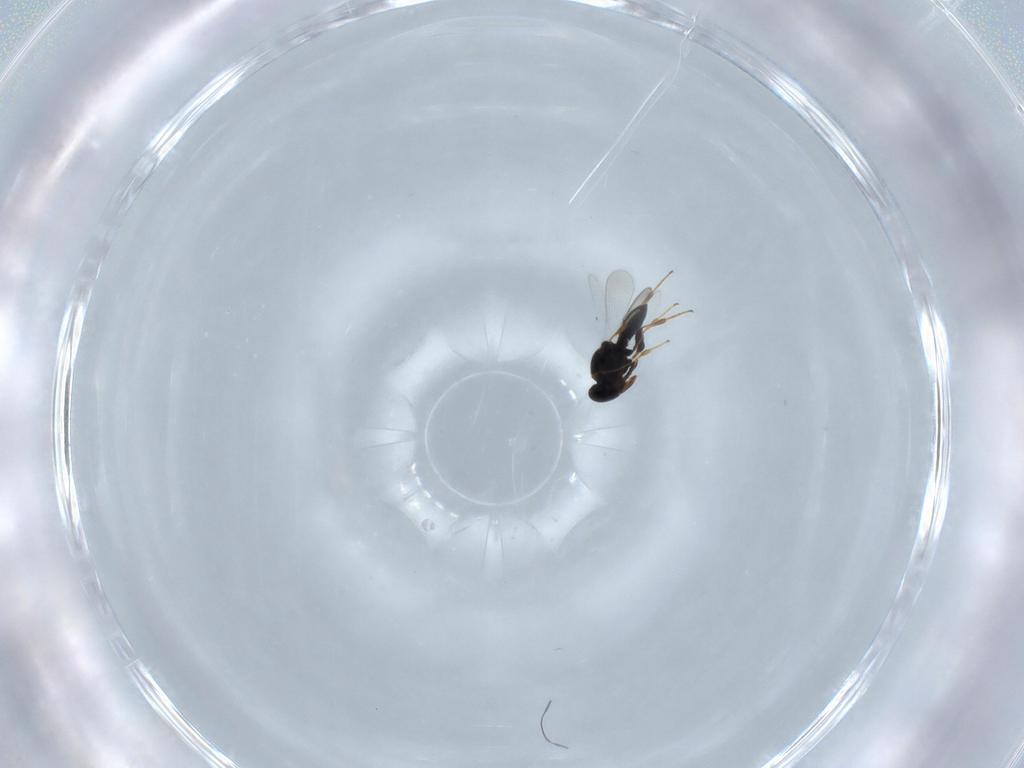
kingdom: Animalia
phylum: Arthropoda
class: Insecta
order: Hymenoptera
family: Platygastridae
